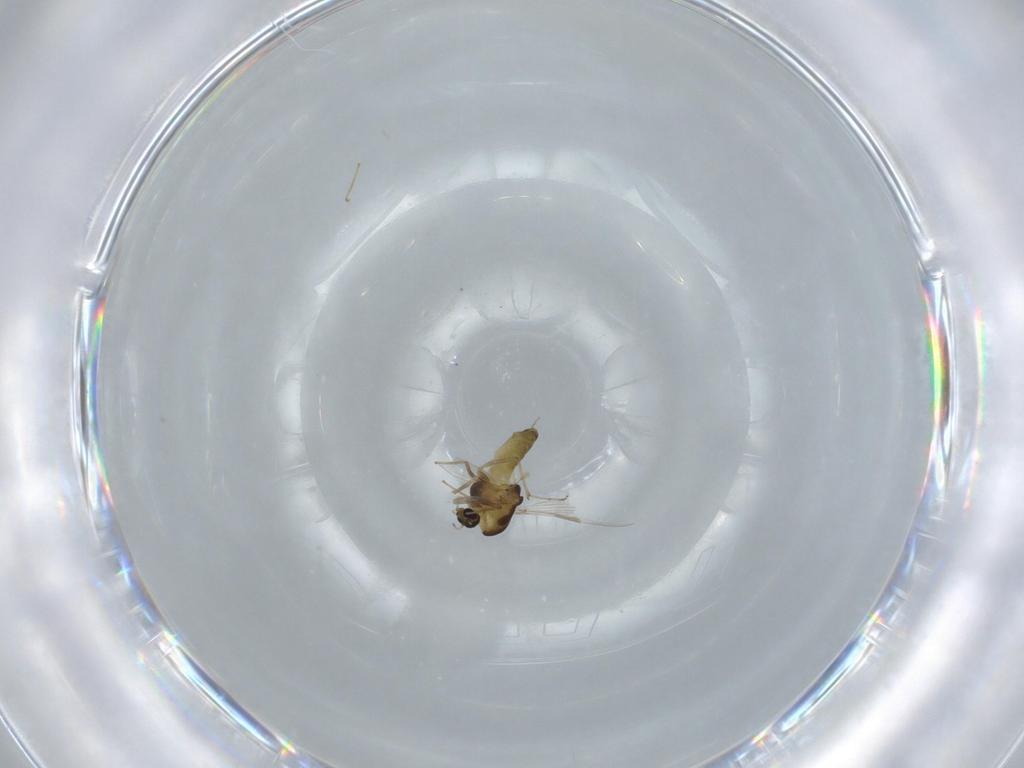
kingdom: Animalia
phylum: Arthropoda
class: Insecta
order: Diptera
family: Chironomidae
